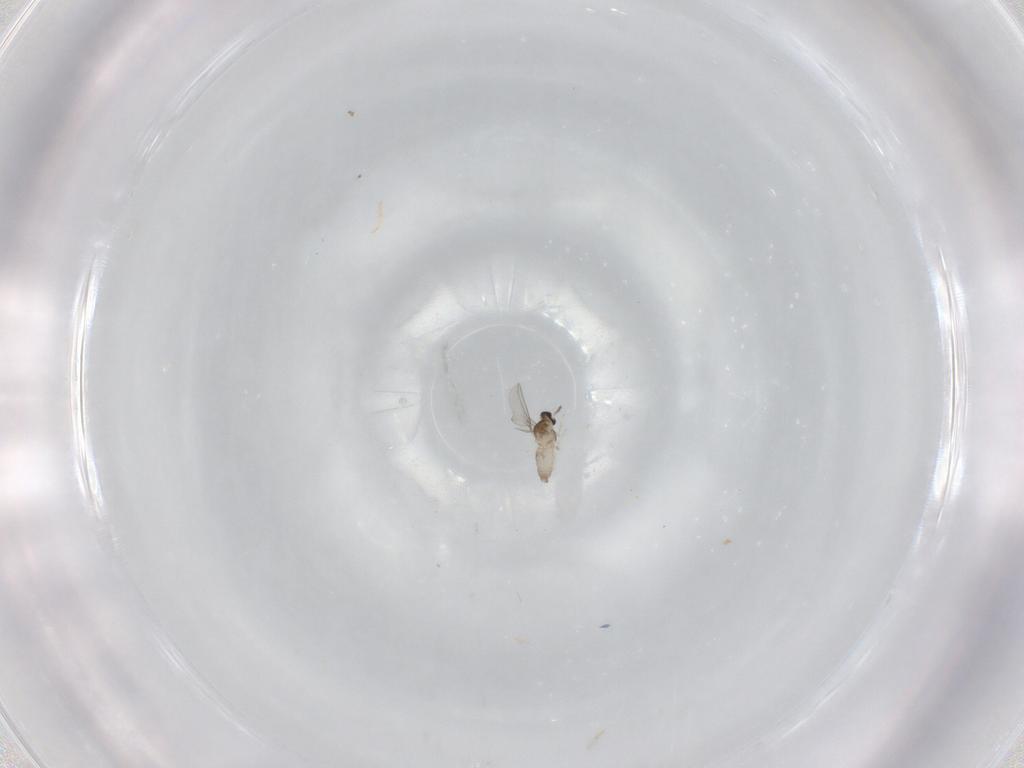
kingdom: Animalia
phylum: Arthropoda
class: Insecta
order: Diptera
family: Cecidomyiidae
